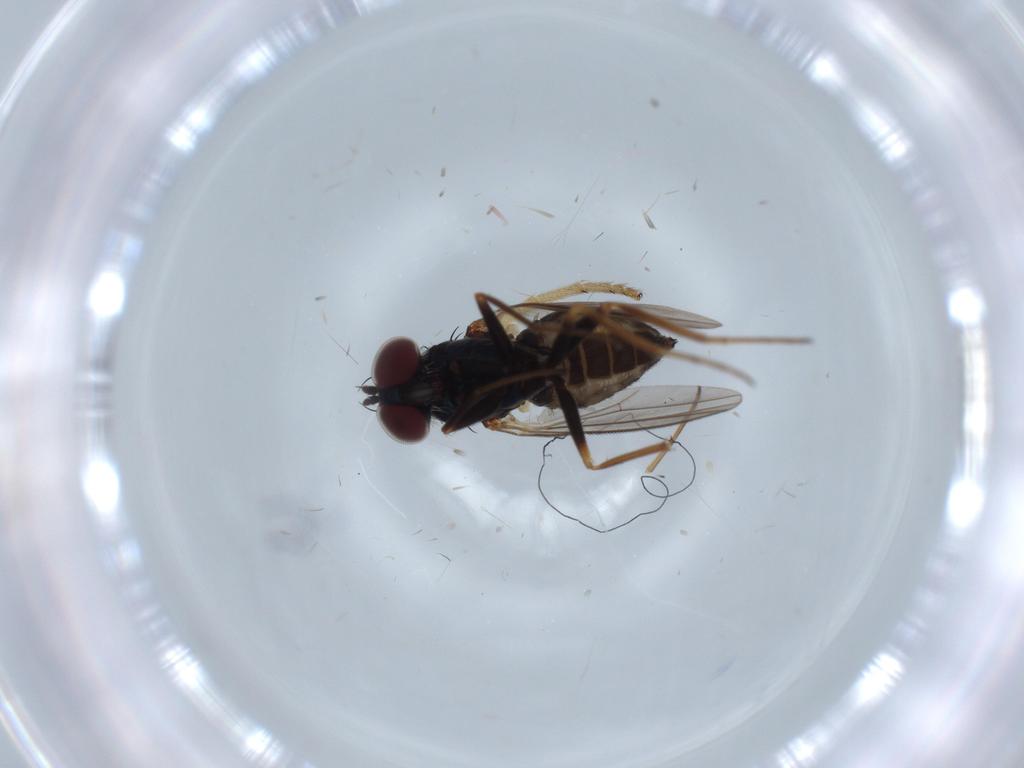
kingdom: Animalia
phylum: Arthropoda
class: Insecta
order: Diptera
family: Dolichopodidae
